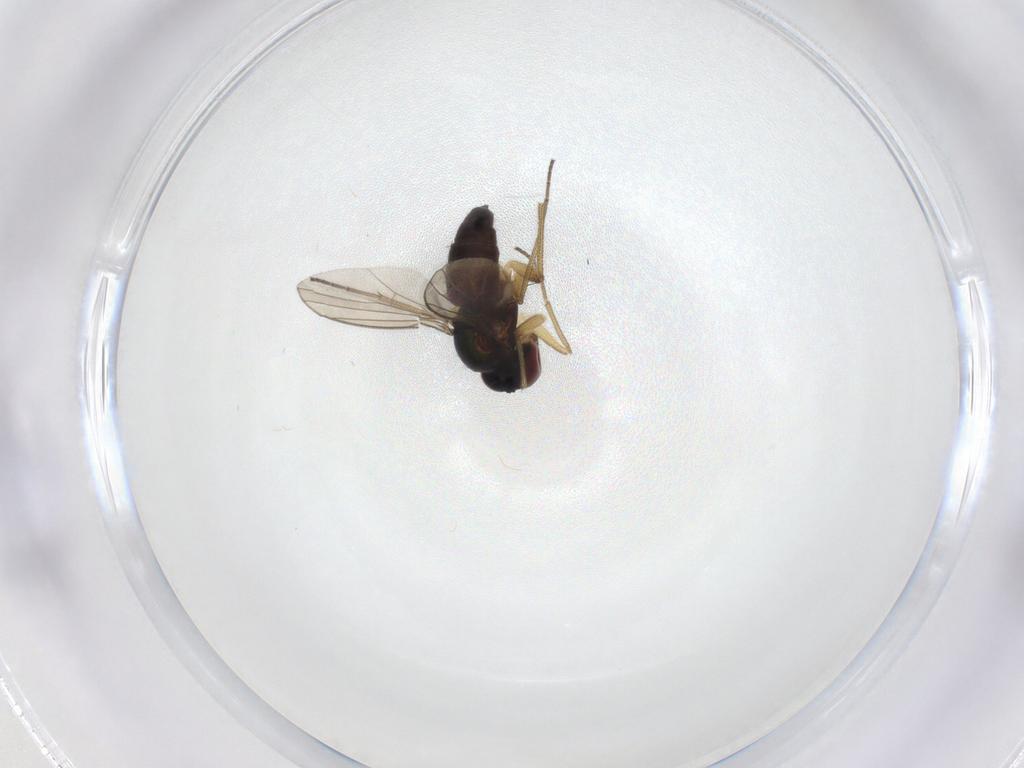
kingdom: Animalia
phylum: Arthropoda
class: Insecta
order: Diptera
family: Dolichopodidae
